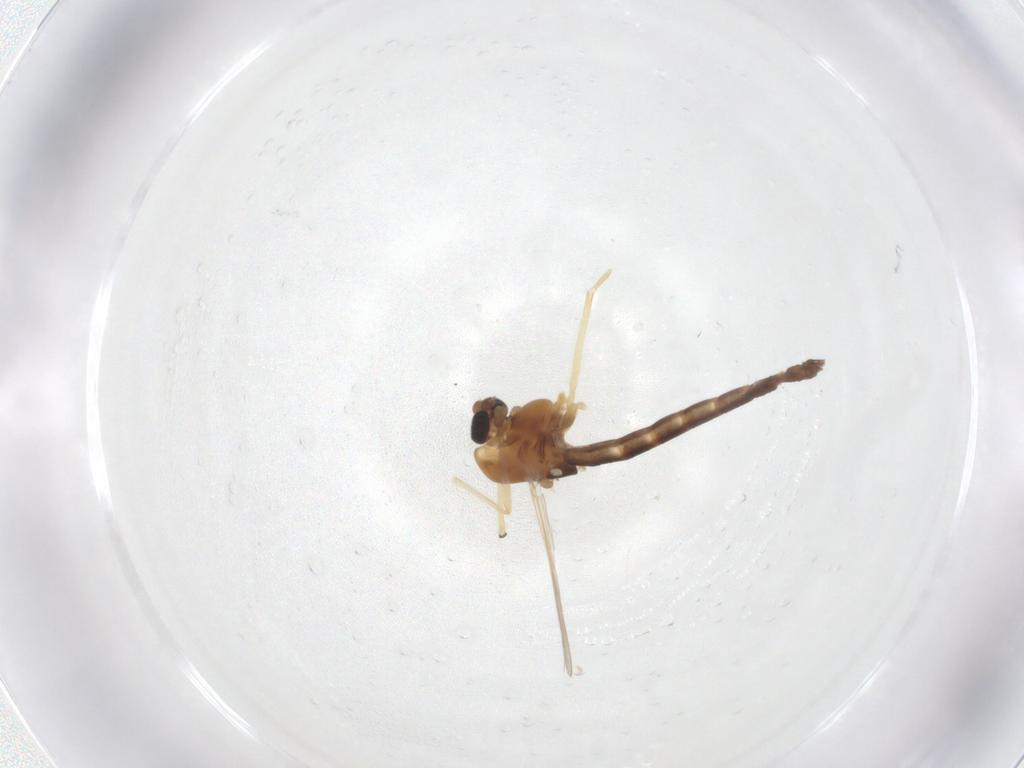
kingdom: Animalia
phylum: Arthropoda
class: Insecta
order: Diptera
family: Chironomidae
